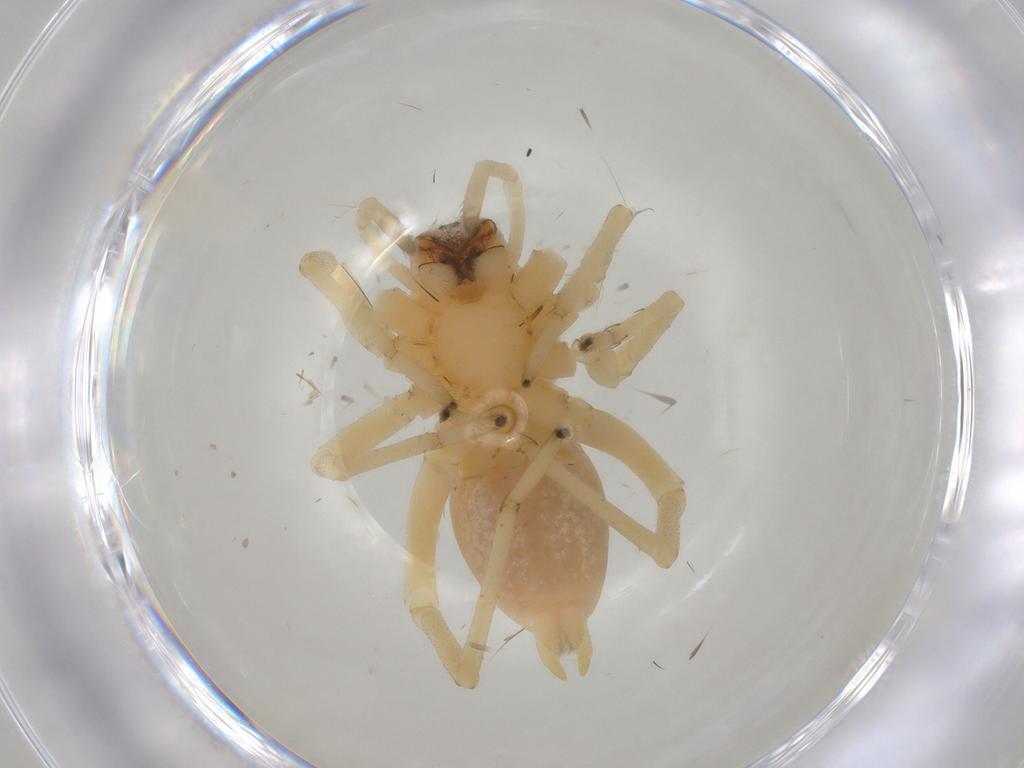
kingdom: Animalia
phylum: Arthropoda
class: Arachnida
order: Araneae
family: Cheiracanthiidae
